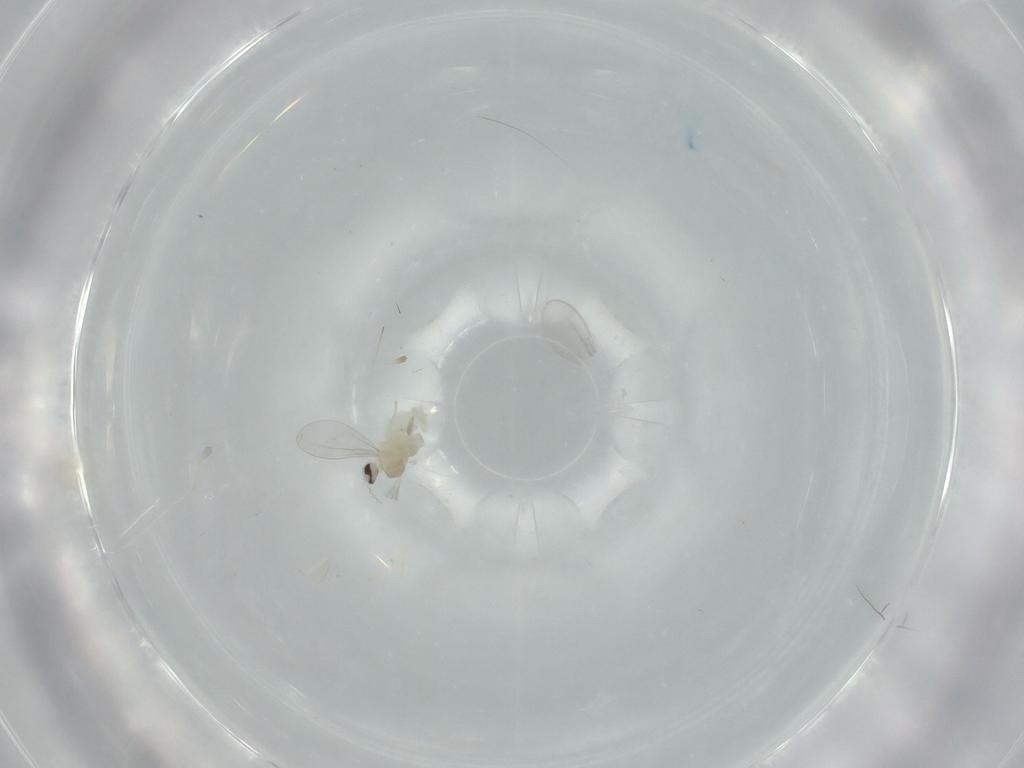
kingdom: Animalia
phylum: Arthropoda
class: Insecta
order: Diptera
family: Cecidomyiidae
